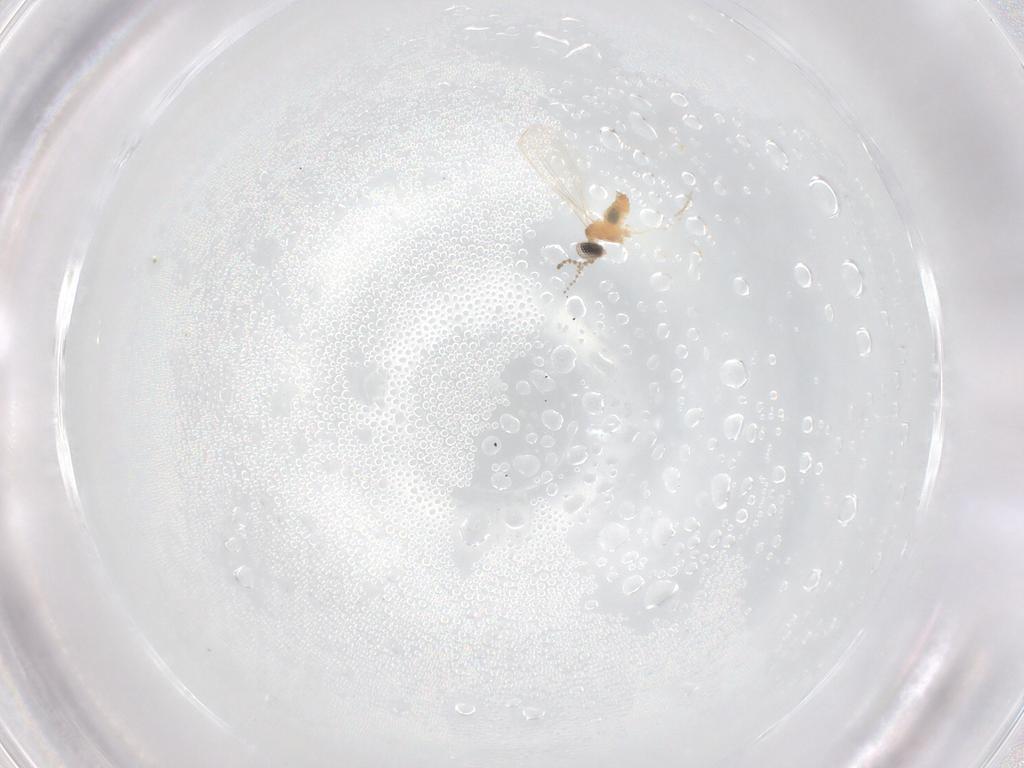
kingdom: Animalia
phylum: Arthropoda
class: Insecta
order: Diptera
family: Cecidomyiidae
